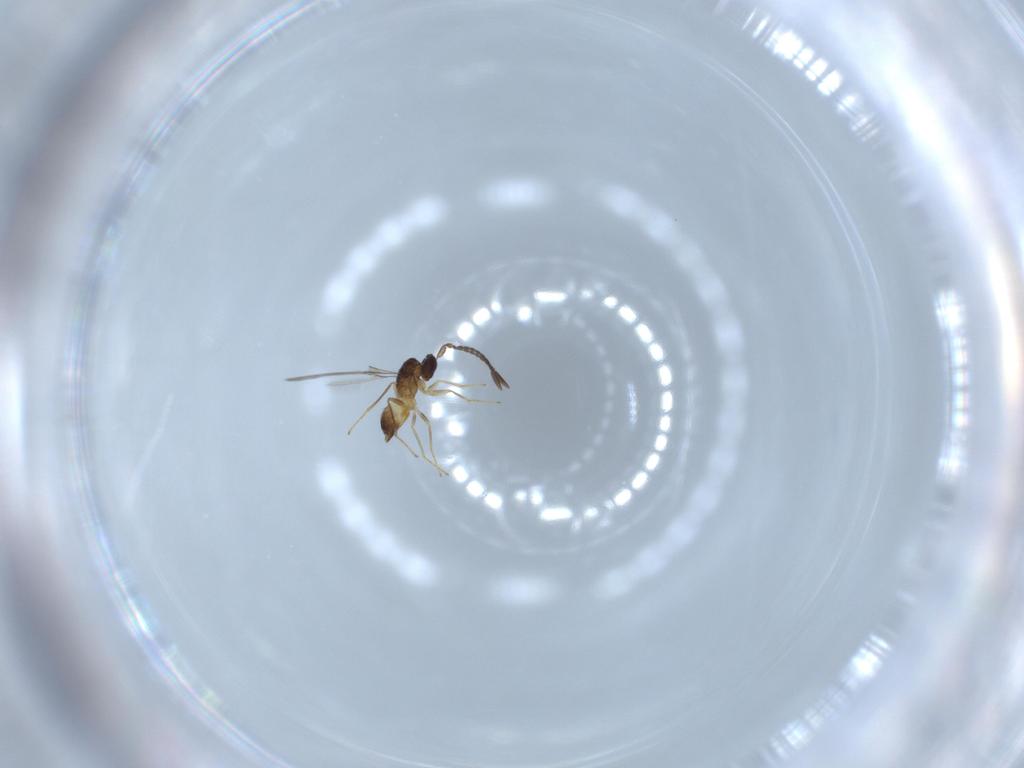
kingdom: Animalia
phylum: Arthropoda
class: Insecta
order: Hymenoptera
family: Mymaridae
